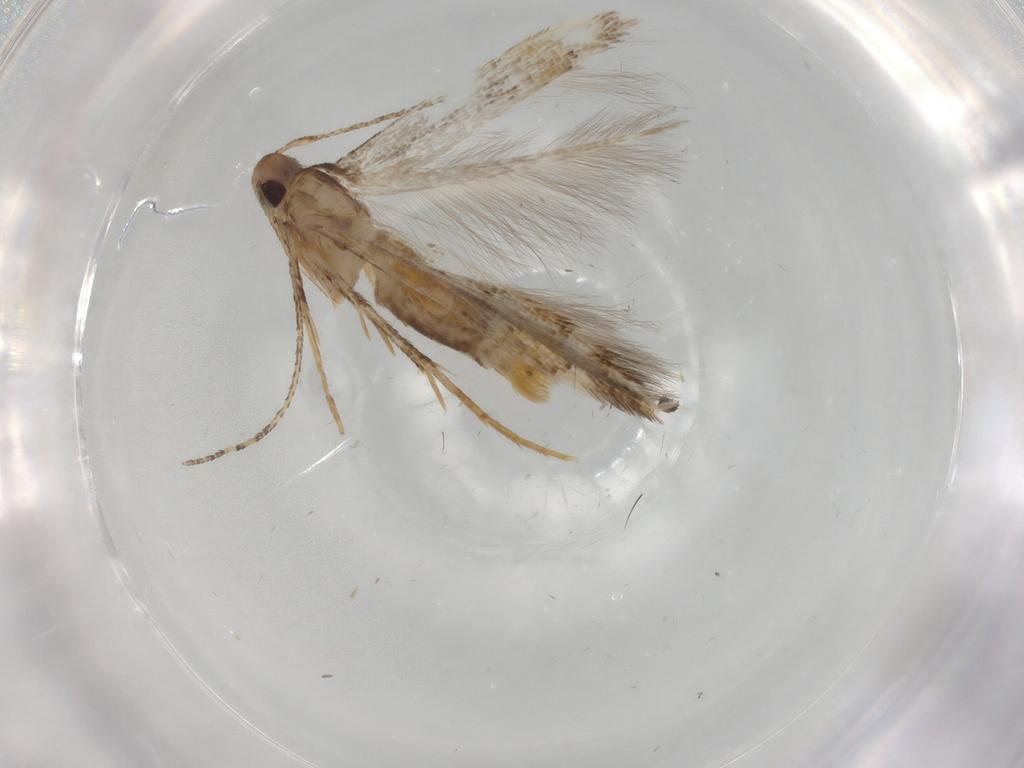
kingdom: Animalia
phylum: Arthropoda
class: Insecta
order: Lepidoptera
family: Cosmopterigidae
